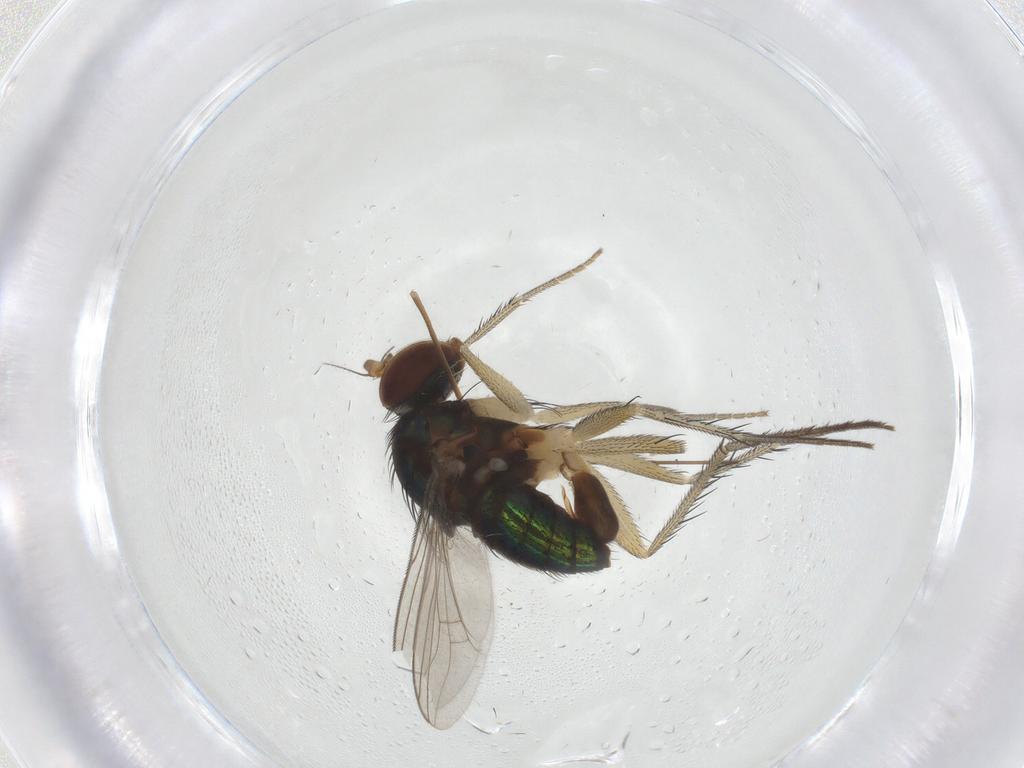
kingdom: Animalia
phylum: Arthropoda
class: Insecta
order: Diptera
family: Dolichopodidae
